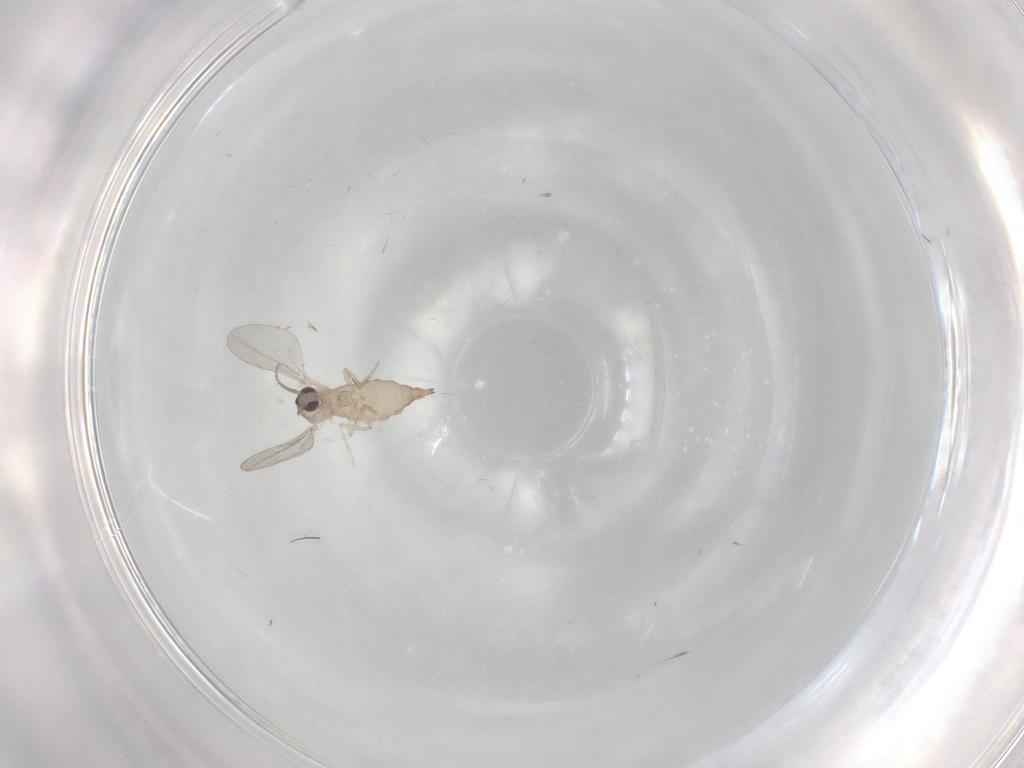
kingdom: Animalia
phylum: Arthropoda
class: Insecta
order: Diptera
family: Cecidomyiidae
